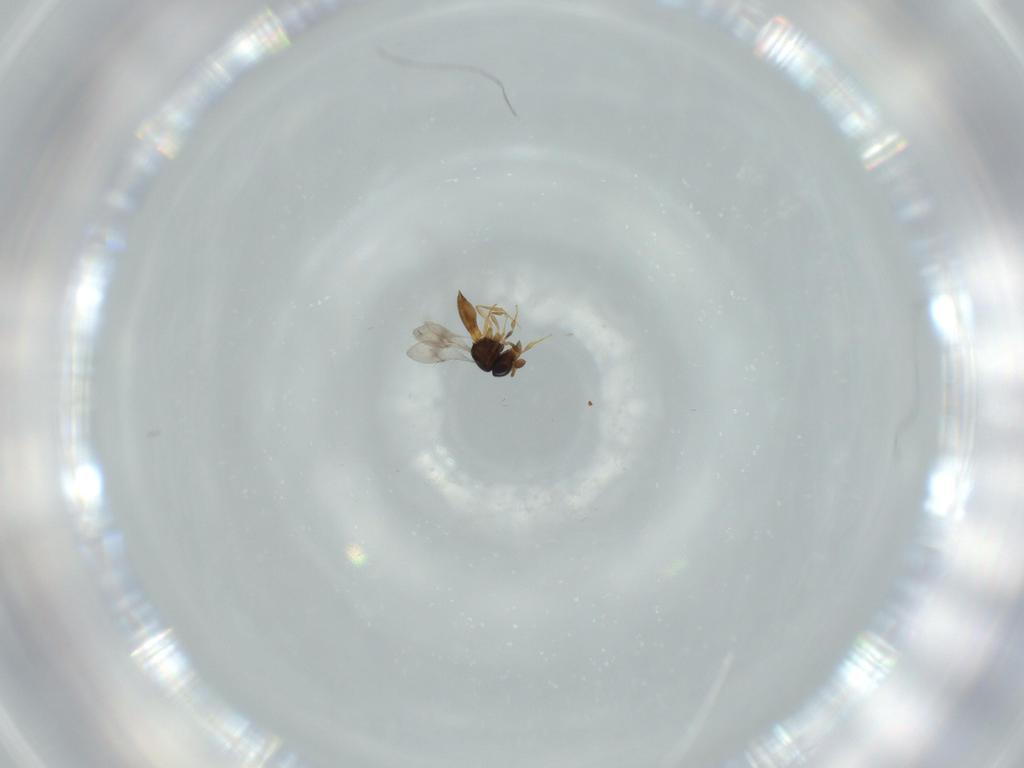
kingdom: Animalia
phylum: Arthropoda
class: Insecta
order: Hymenoptera
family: Scelionidae
